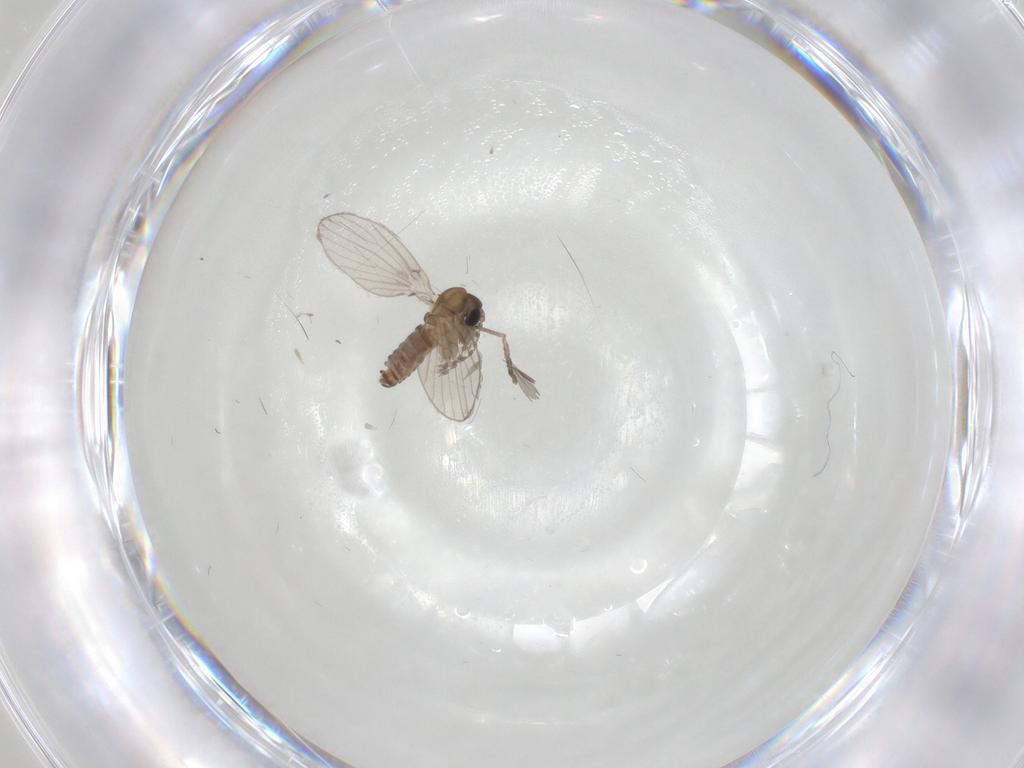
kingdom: Animalia
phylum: Arthropoda
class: Insecta
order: Diptera
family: Psychodidae
